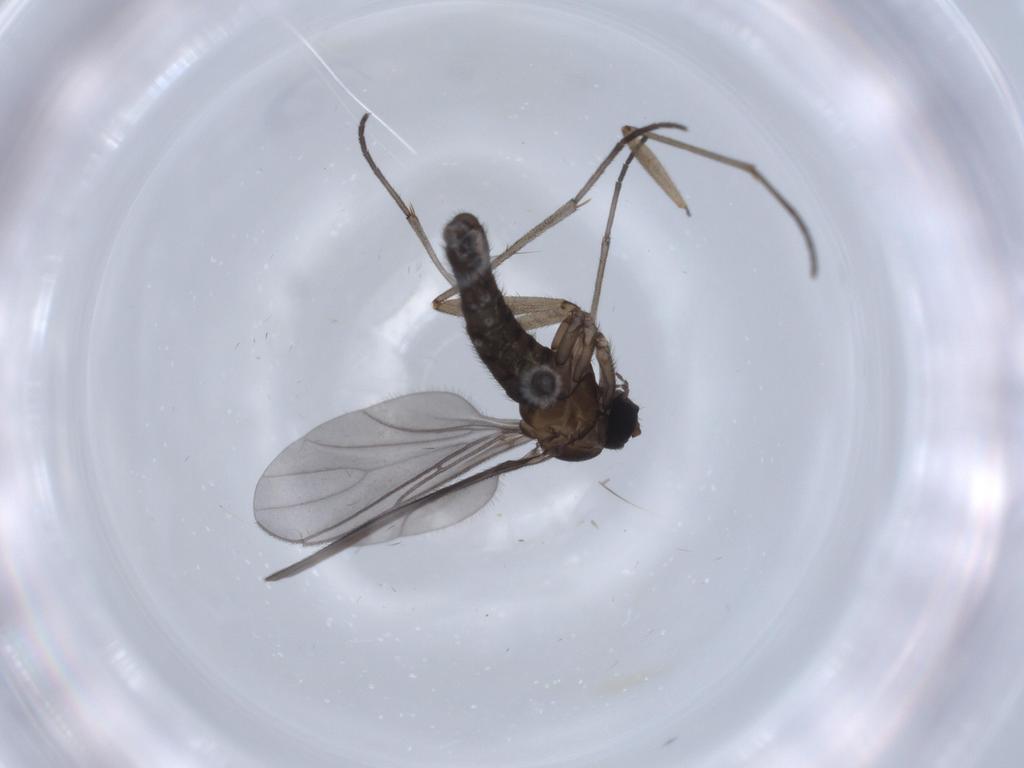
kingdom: Animalia
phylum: Arthropoda
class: Insecta
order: Diptera
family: Sciaridae
